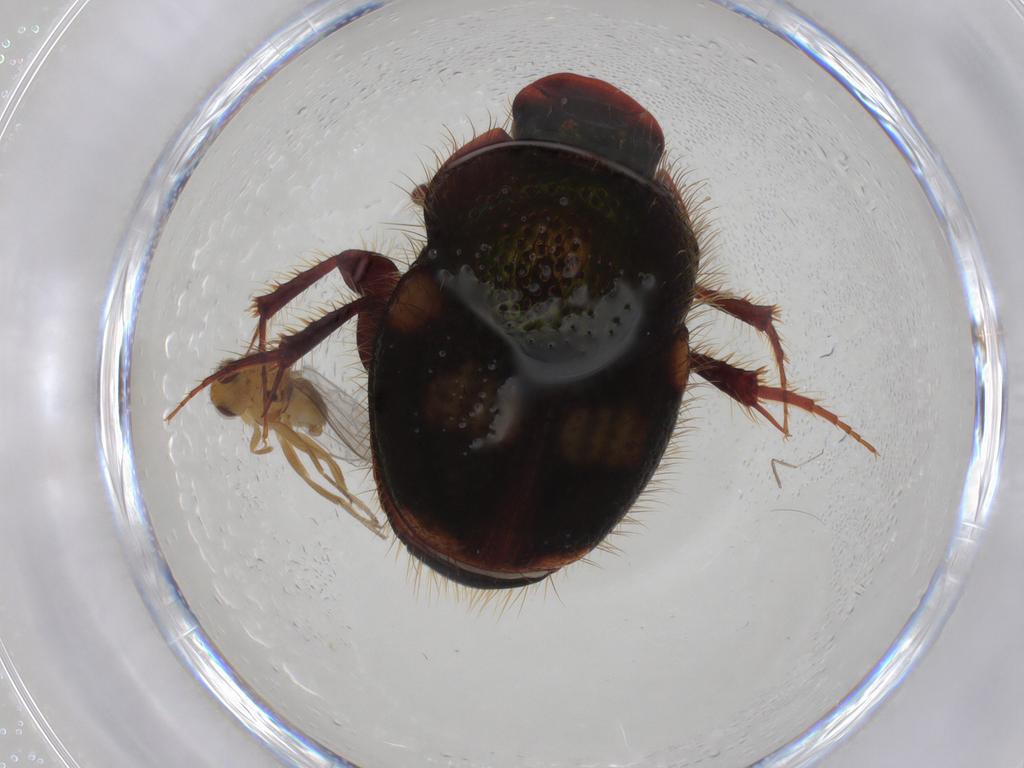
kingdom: Animalia
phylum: Arthropoda
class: Insecta
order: Diptera
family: Chloropidae
